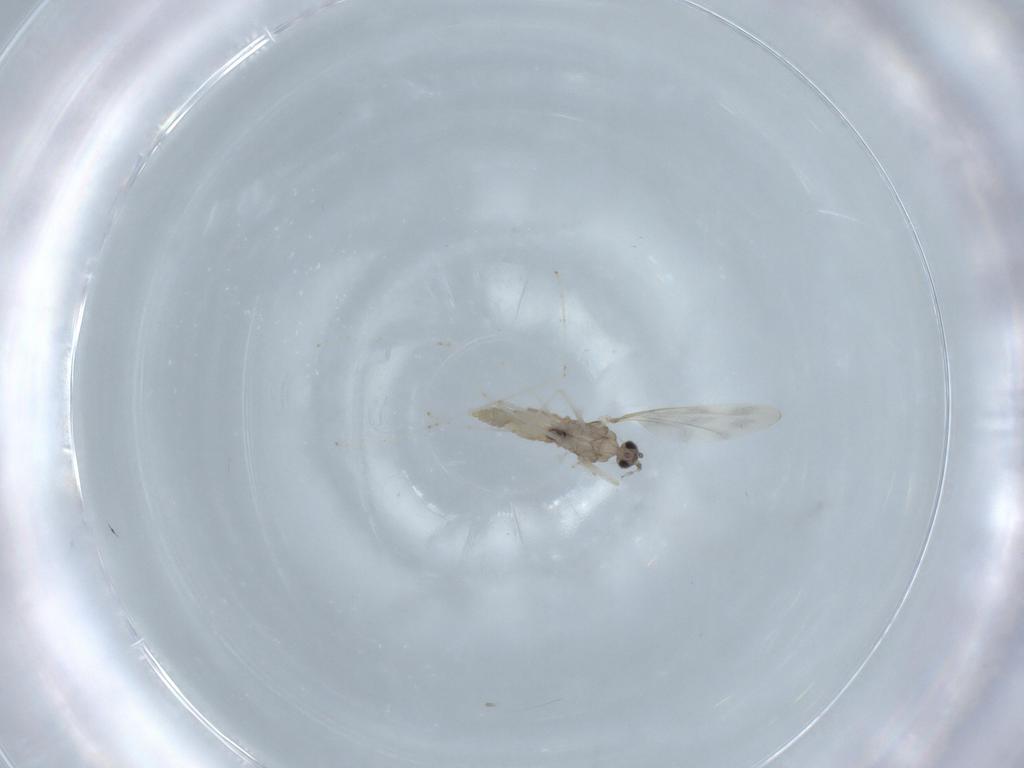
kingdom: Animalia
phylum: Arthropoda
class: Insecta
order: Diptera
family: Cecidomyiidae
